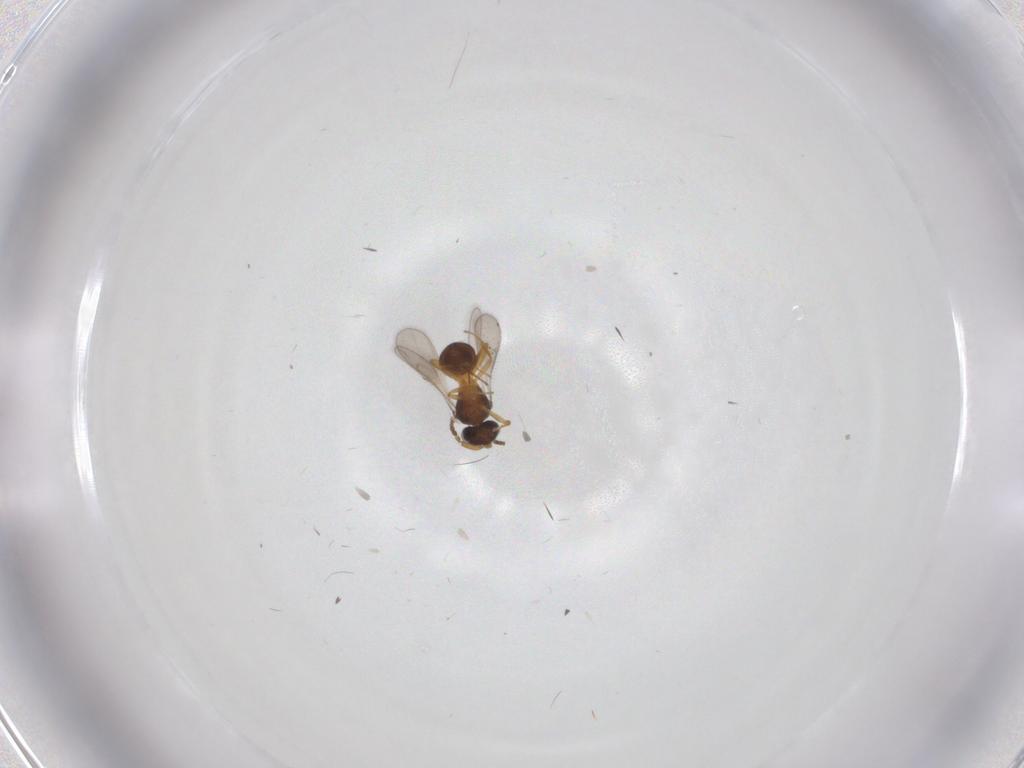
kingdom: Animalia
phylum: Arthropoda
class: Insecta
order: Hymenoptera
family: Scelionidae
